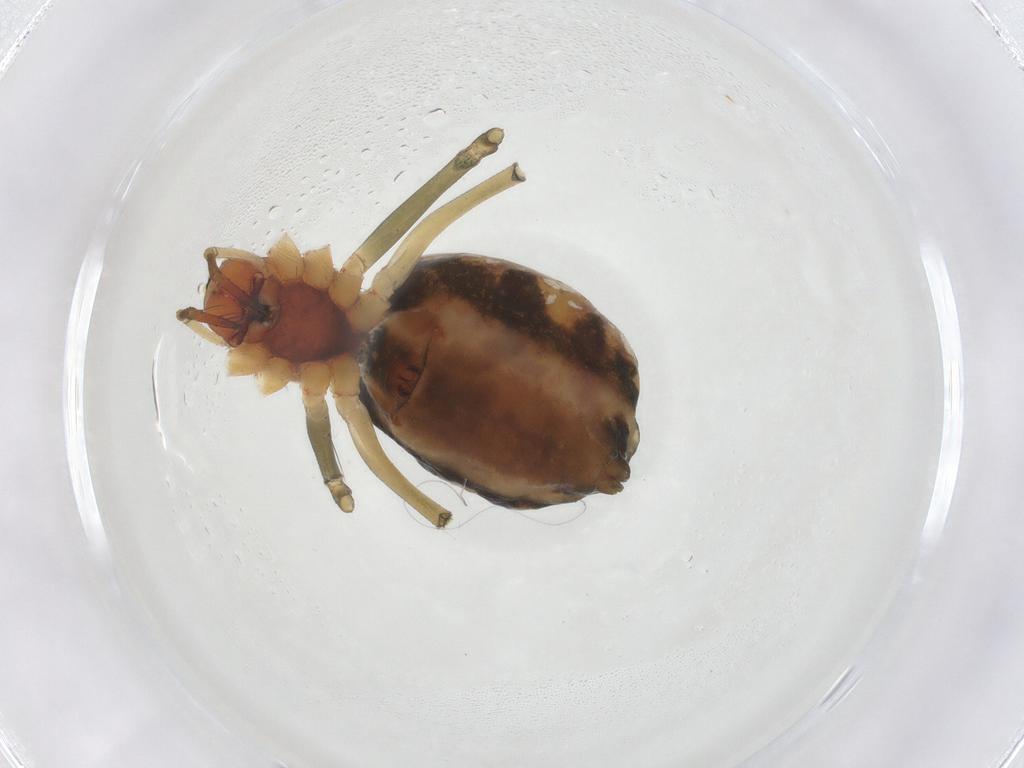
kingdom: Animalia
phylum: Arthropoda
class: Arachnida
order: Araneae
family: Linyphiidae
